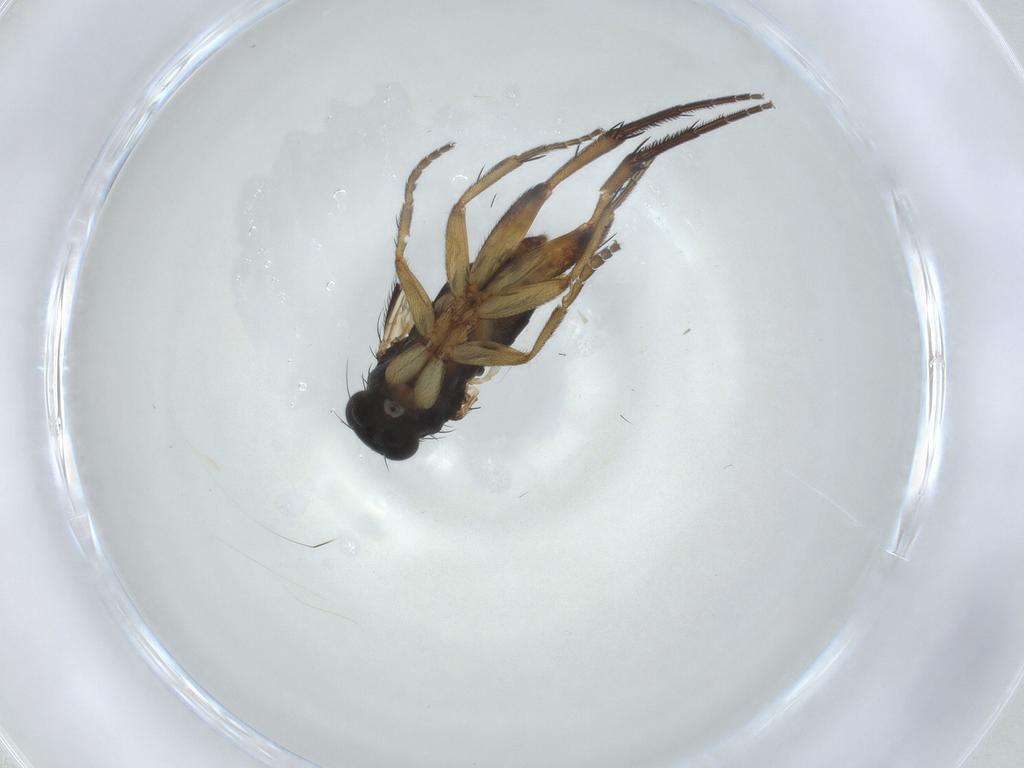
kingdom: Animalia
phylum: Arthropoda
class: Insecta
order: Diptera
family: Phoridae
